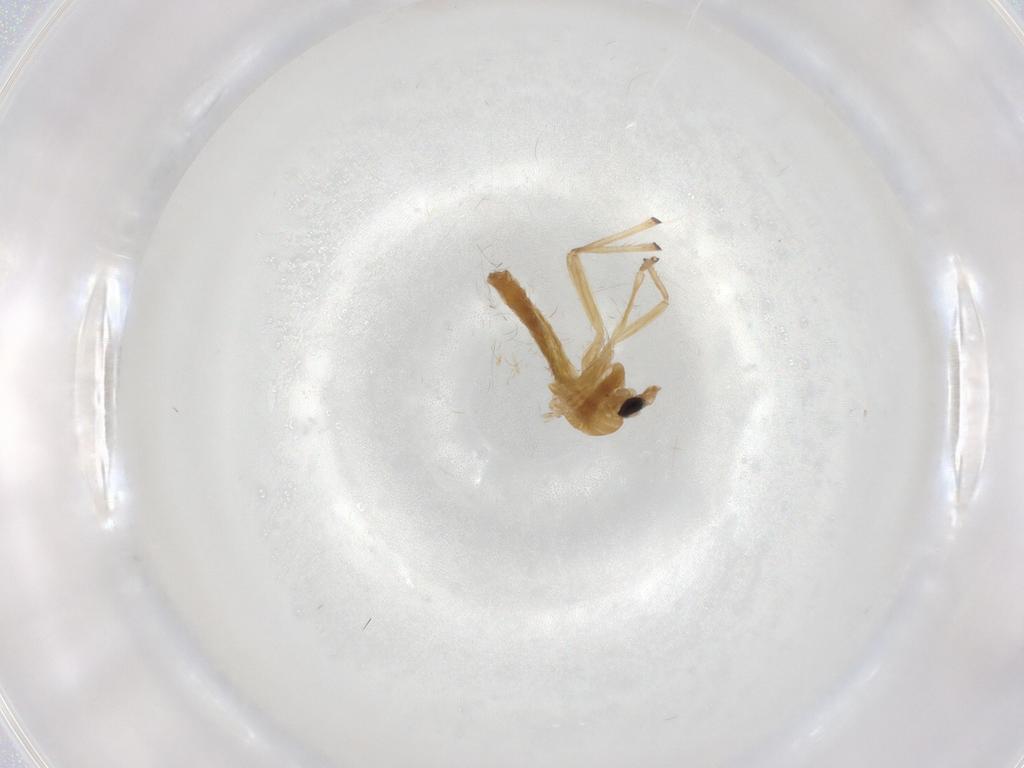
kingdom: Animalia
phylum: Arthropoda
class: Insecta
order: Diptera
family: Chironomidae
